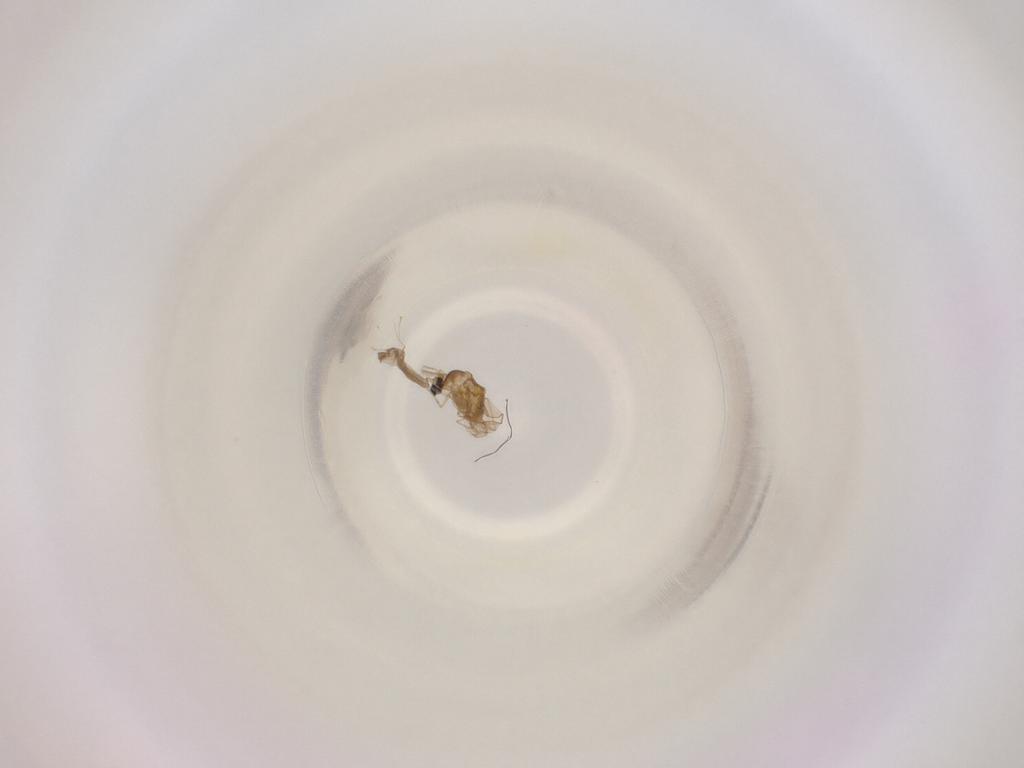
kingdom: Animalia
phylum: Arthropoda
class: Insecta
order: Diptera
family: Cecidomyiidae
